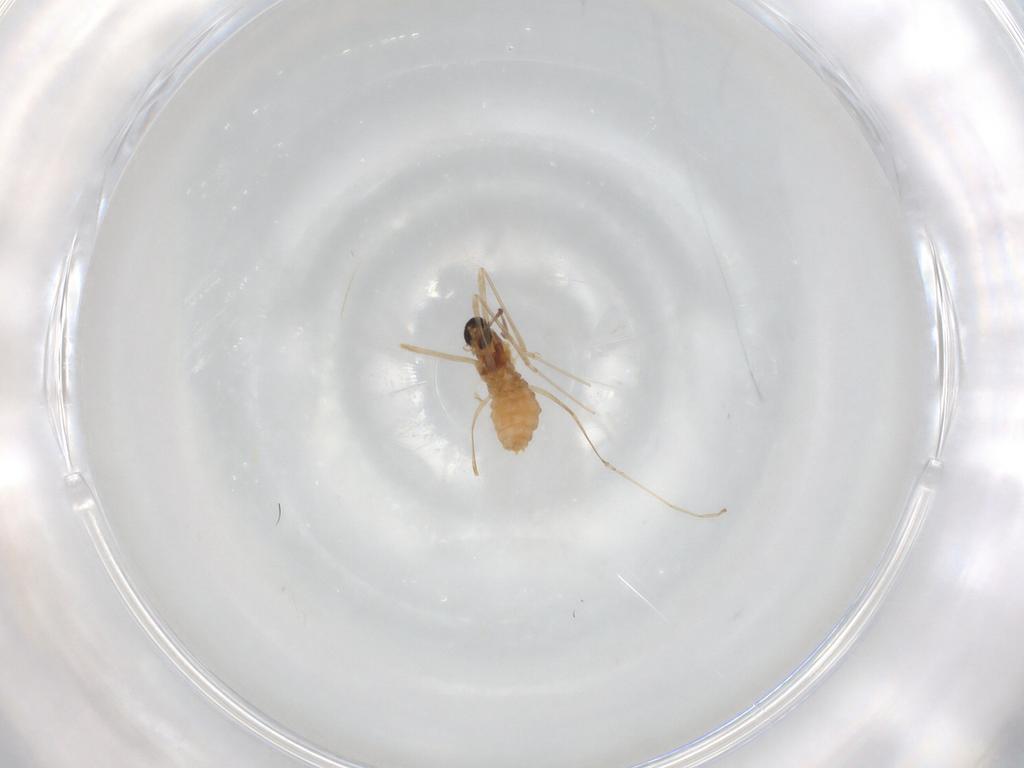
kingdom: Animalia
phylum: Arthropoda
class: Insecta
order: Diptera
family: Cecidomyiidae
